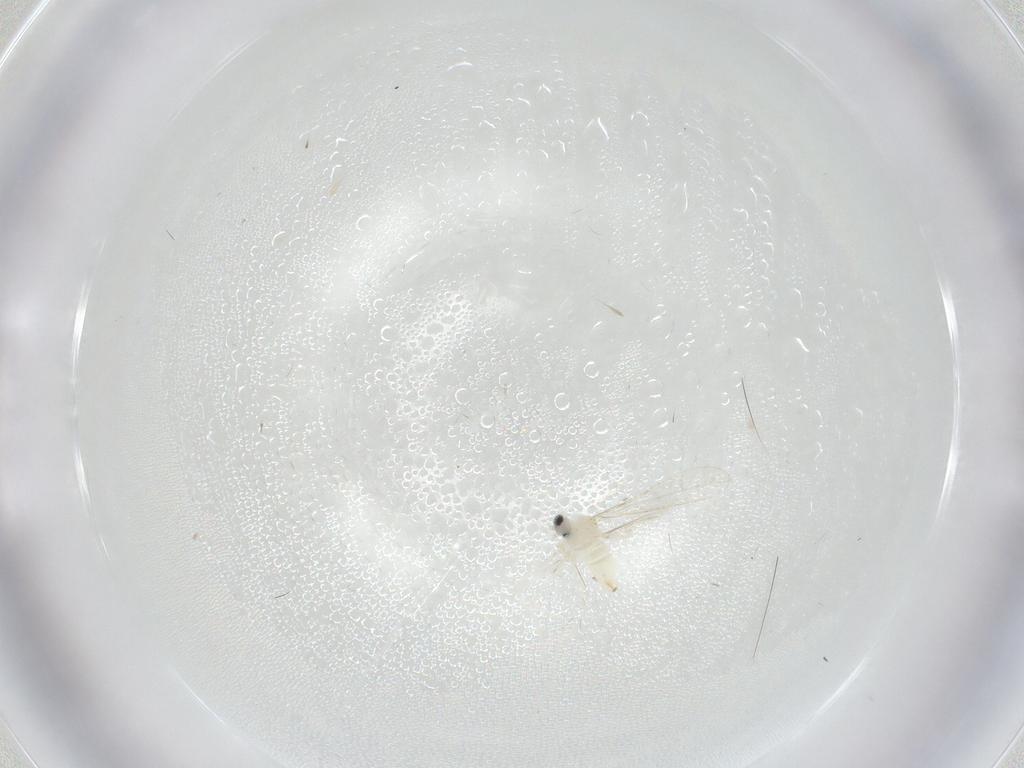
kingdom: Animalia
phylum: Arthropoda
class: Insecta
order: Diptera
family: Cecidomyiidae
